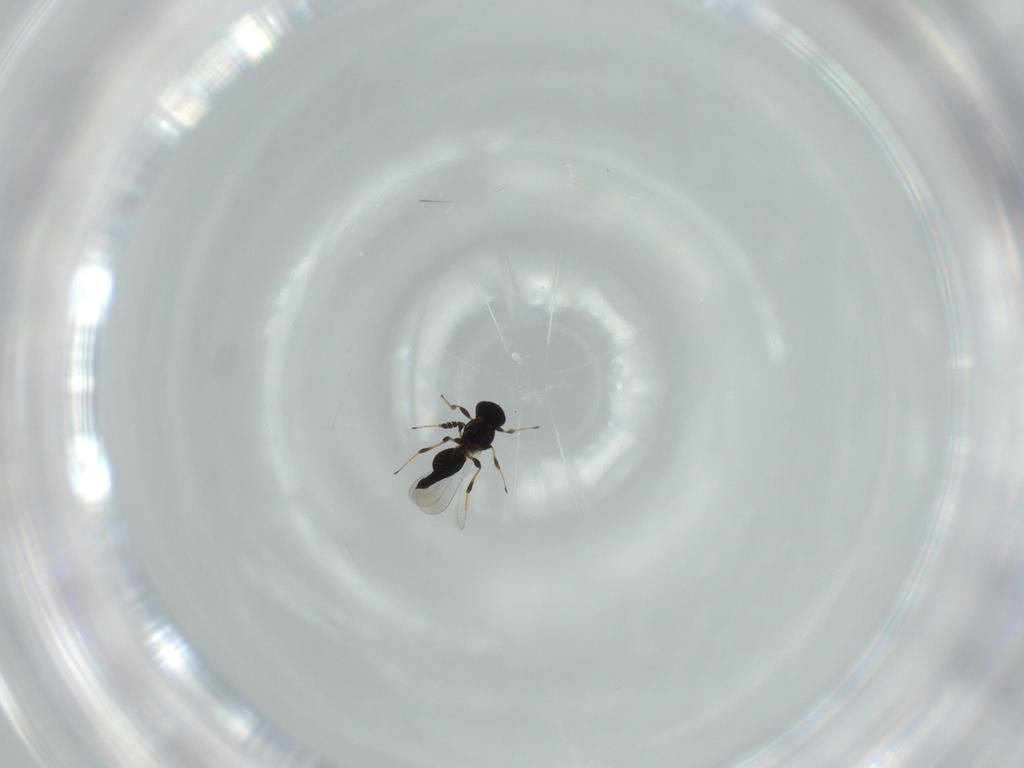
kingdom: Animalia
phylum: Arthropoda
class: Insecta
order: Hymenoptera
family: Platygastridae
